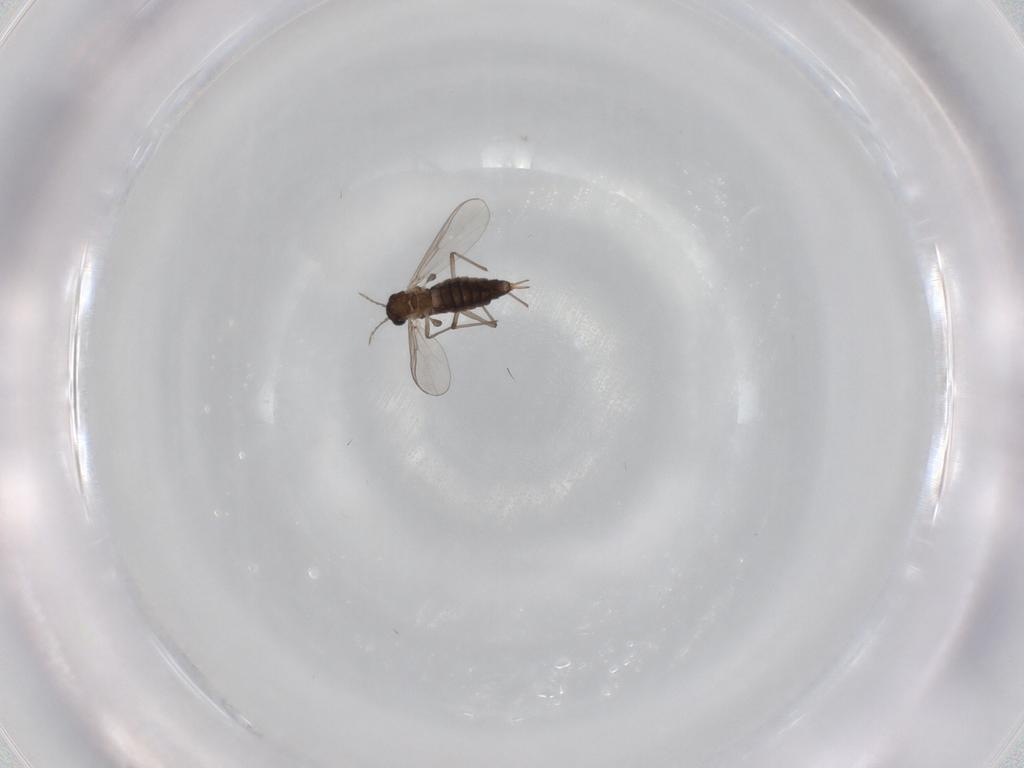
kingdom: Animalia
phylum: Arthropoda
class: Insecta
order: Diptera
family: Chironomidae
